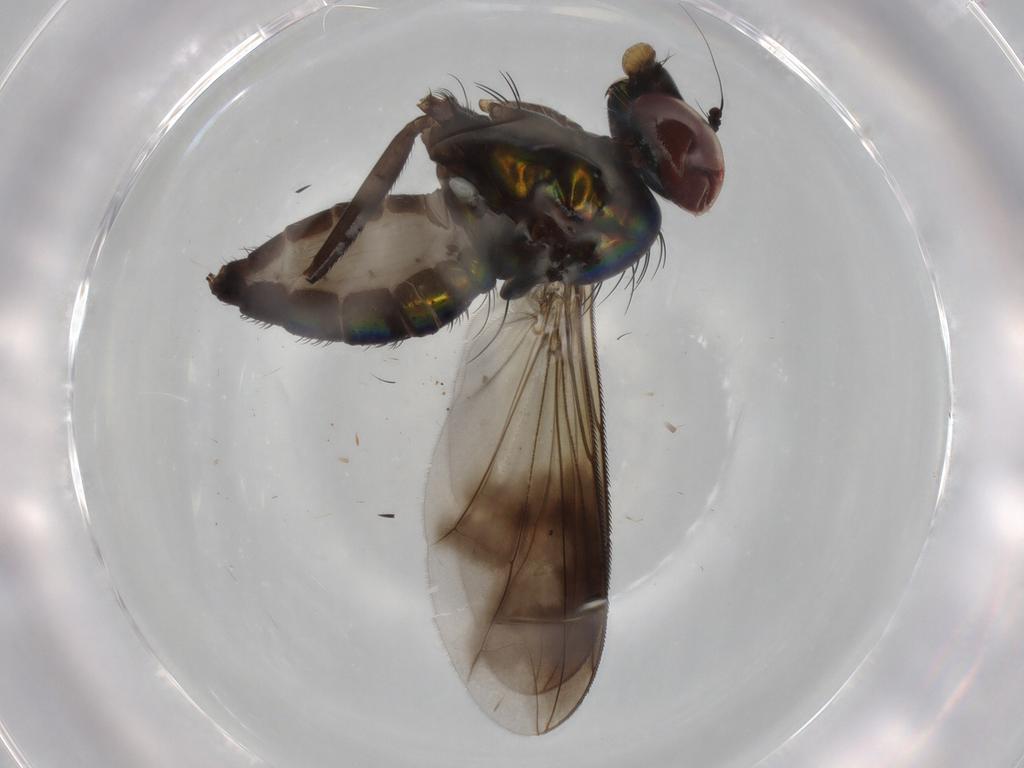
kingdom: Animalia
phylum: Arthropoda
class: Insecta
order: Diptera
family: Dolichopodidae
